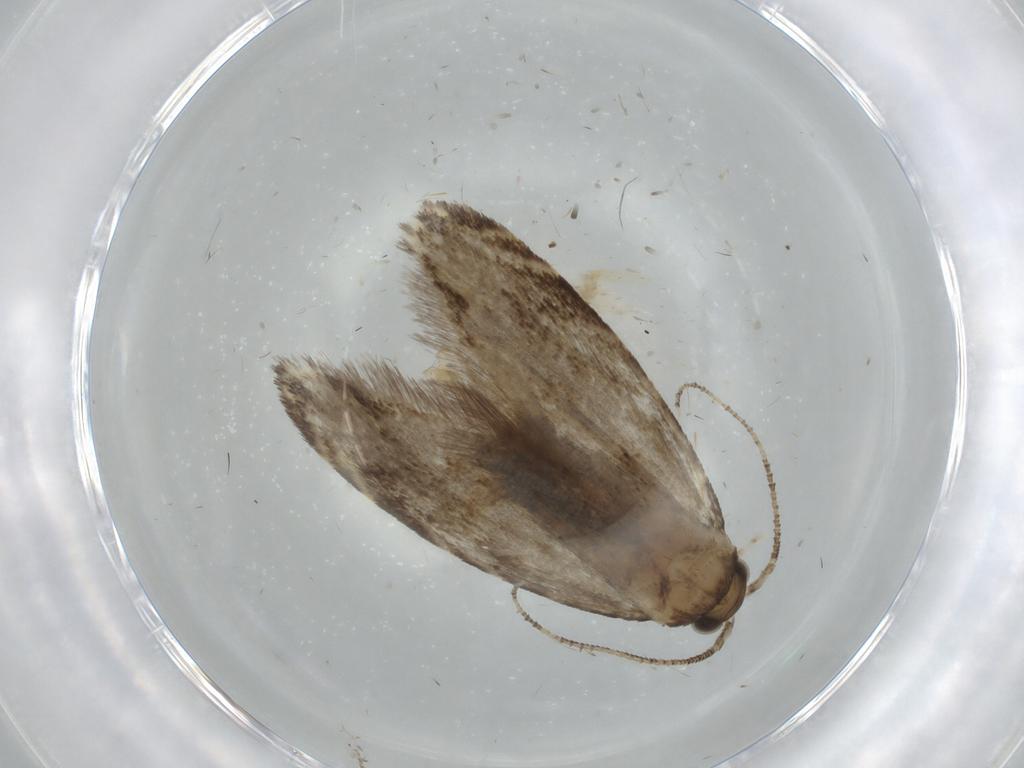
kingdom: Animalia
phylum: Arthropoda
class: Insecta
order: Lepidoptera
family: Tineidae
